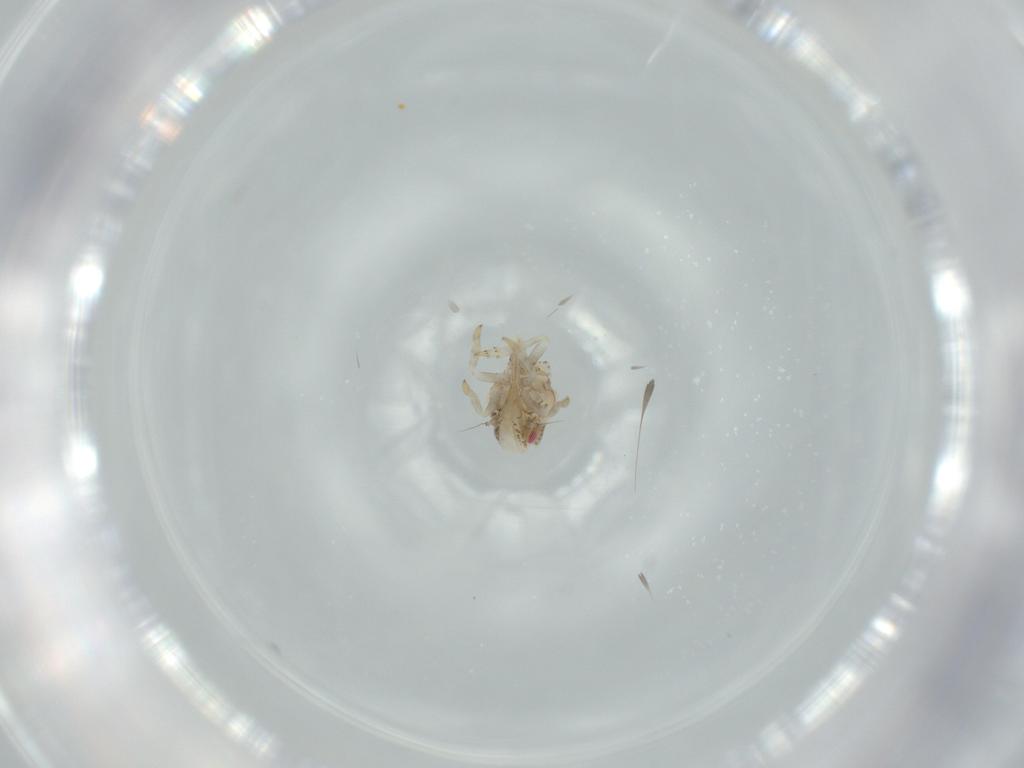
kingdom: Animalia
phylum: Arthropoda
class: Insecta
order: Hemiptera
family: Acanaloniidae
